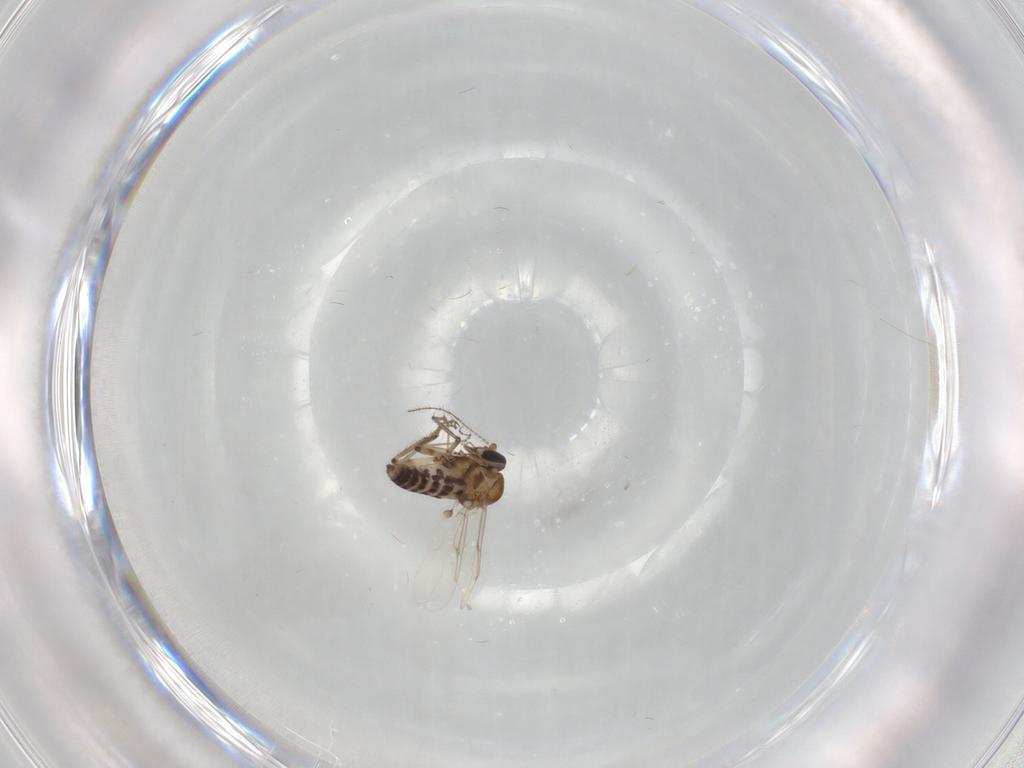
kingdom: Animalia
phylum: Arthropoda
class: Insecta
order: Diptera
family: Ceratopogonidae
